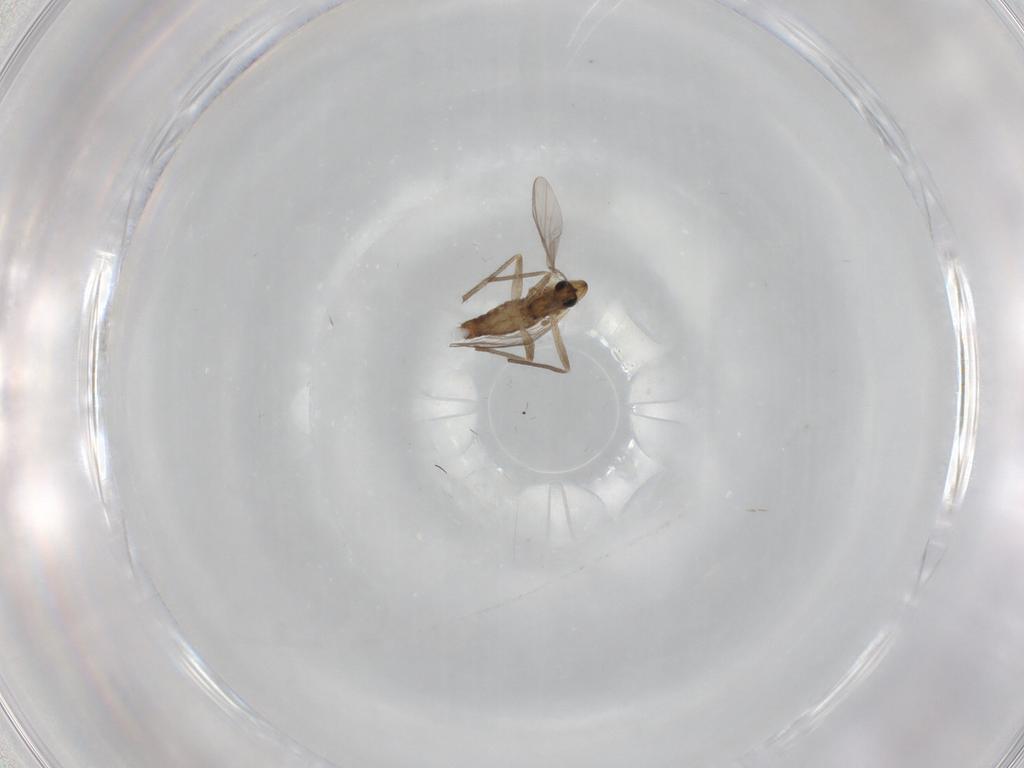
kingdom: Animalia
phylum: Arthropoda
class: Insecta
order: Diptera
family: Chironomidae
